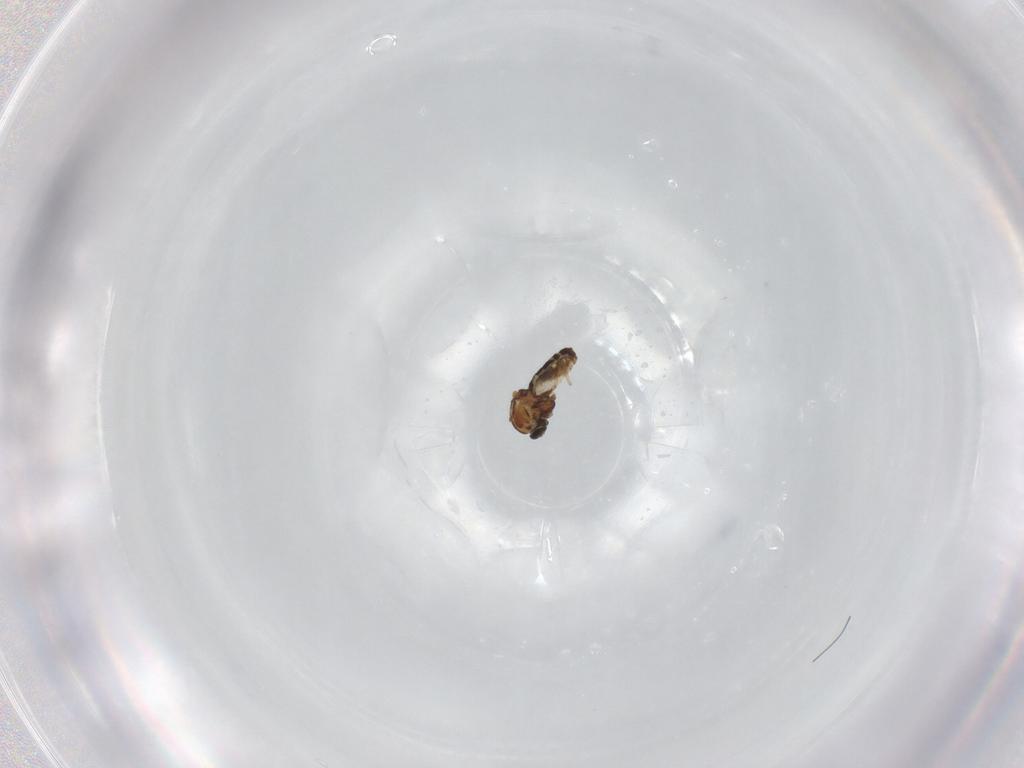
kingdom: Animalia
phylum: Arthropoda
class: Insecta
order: Diptera
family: Ceratopogonidae
